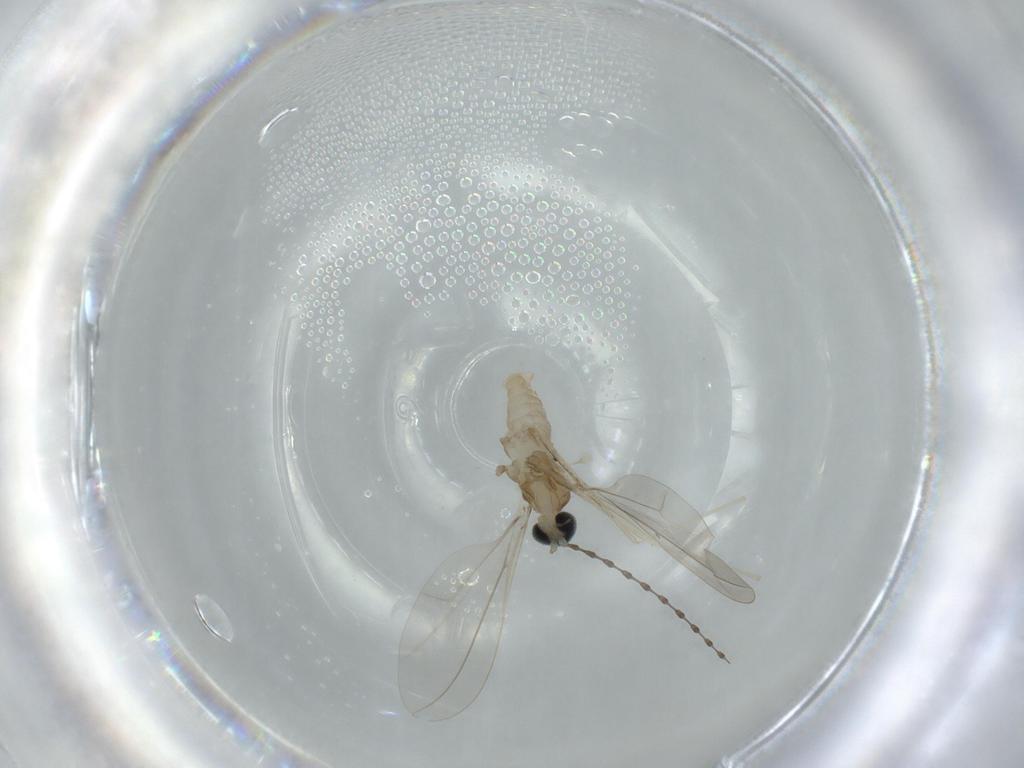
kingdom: Animalia
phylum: Arthropoda
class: Insecta
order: Diptera
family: Cecidomyiidae
